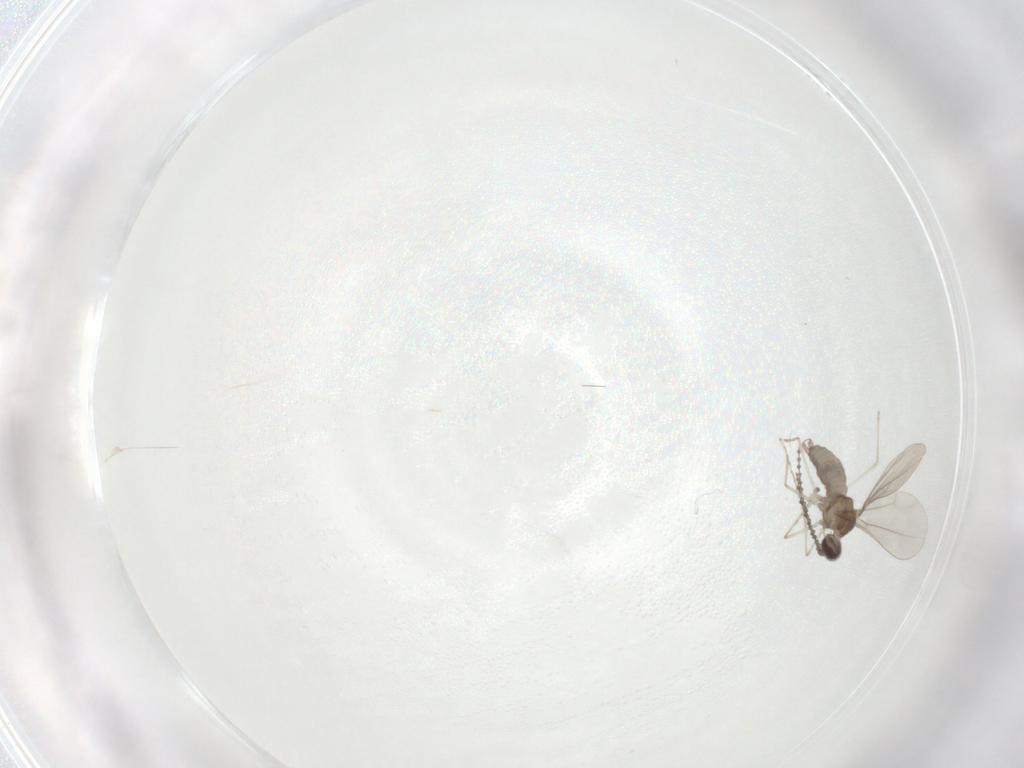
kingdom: Animalia
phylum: Arthropoda
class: Insecta
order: Diptera
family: Cecidomyiidae
